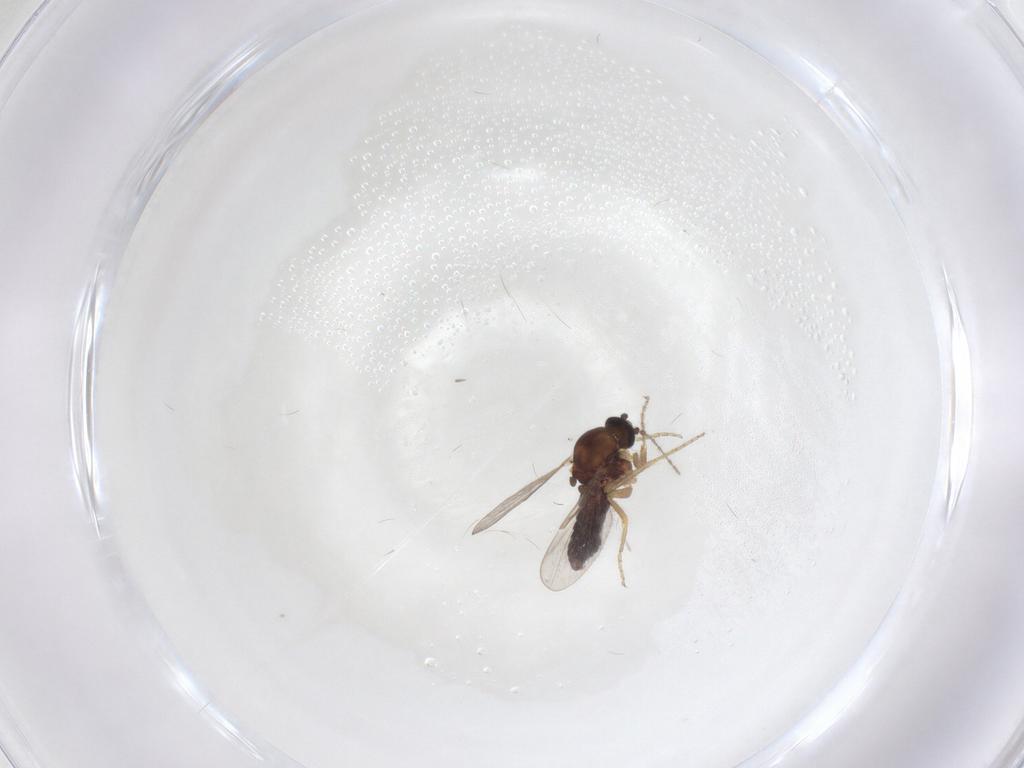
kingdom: Animalia
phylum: Arthropoda
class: Insecta
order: Diptera
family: Ceratopogonidae
